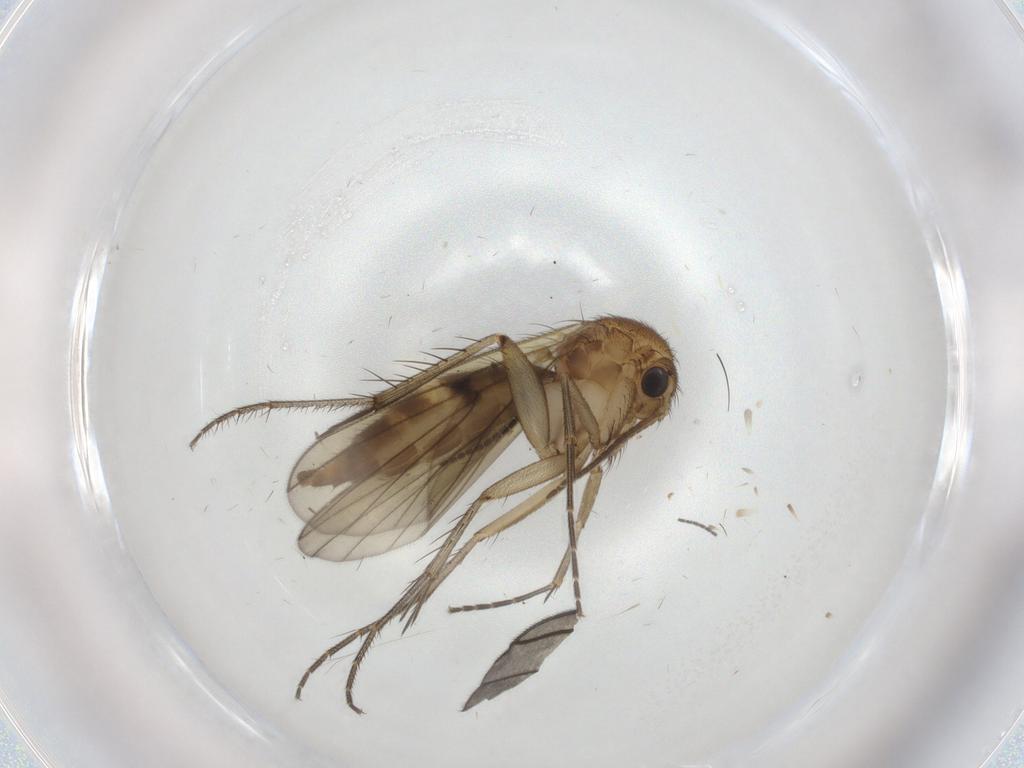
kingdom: Animalia
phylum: Arthropoda
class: Insecta
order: Diptera
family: Mycetophilidae
